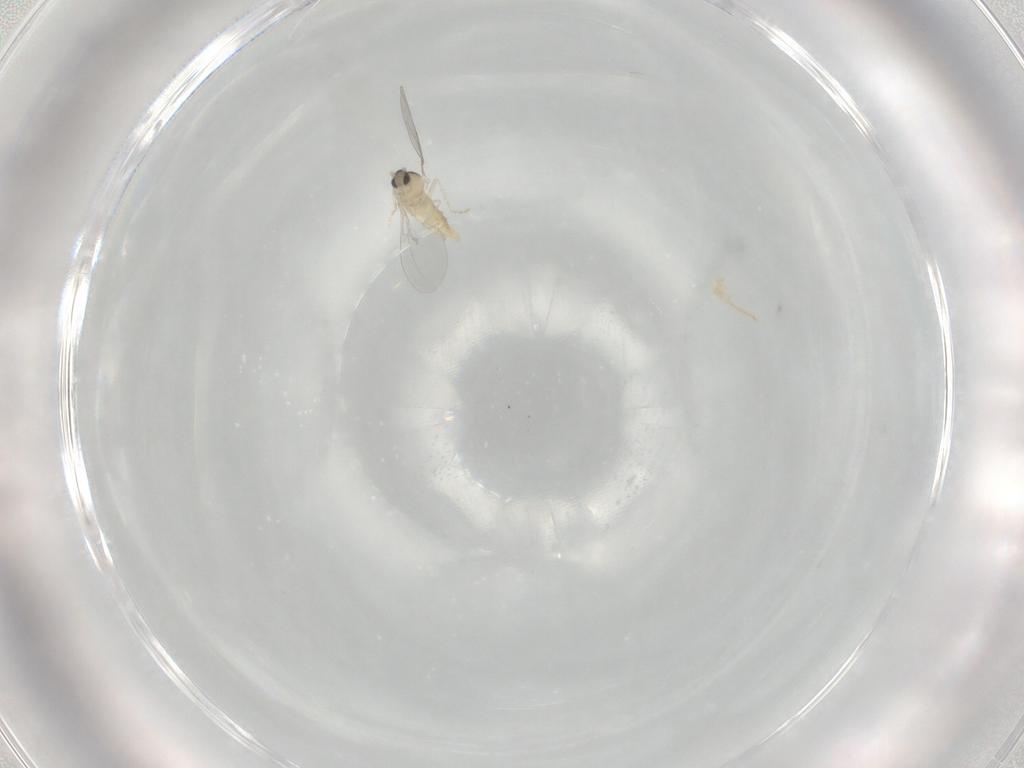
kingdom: Animalia
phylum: Arthropoda
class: Insecta
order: Diptera
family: Cecidomyiidae
